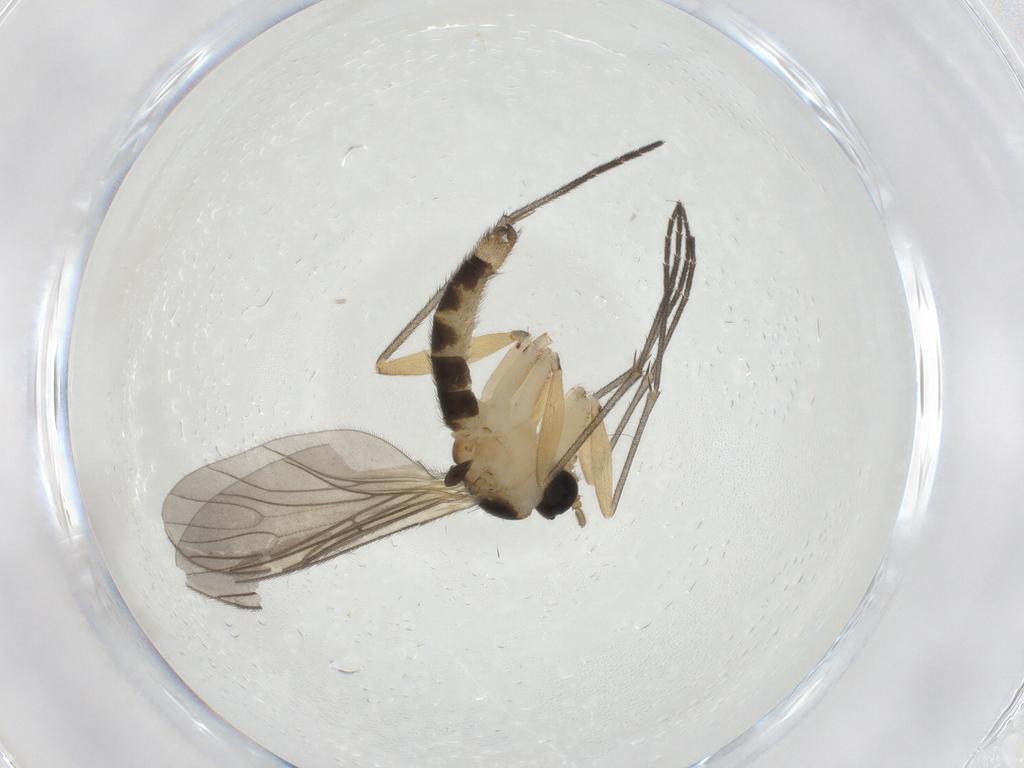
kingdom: Animalia
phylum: Arthropoda
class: Insecta
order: Diptera
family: Sciaridae
